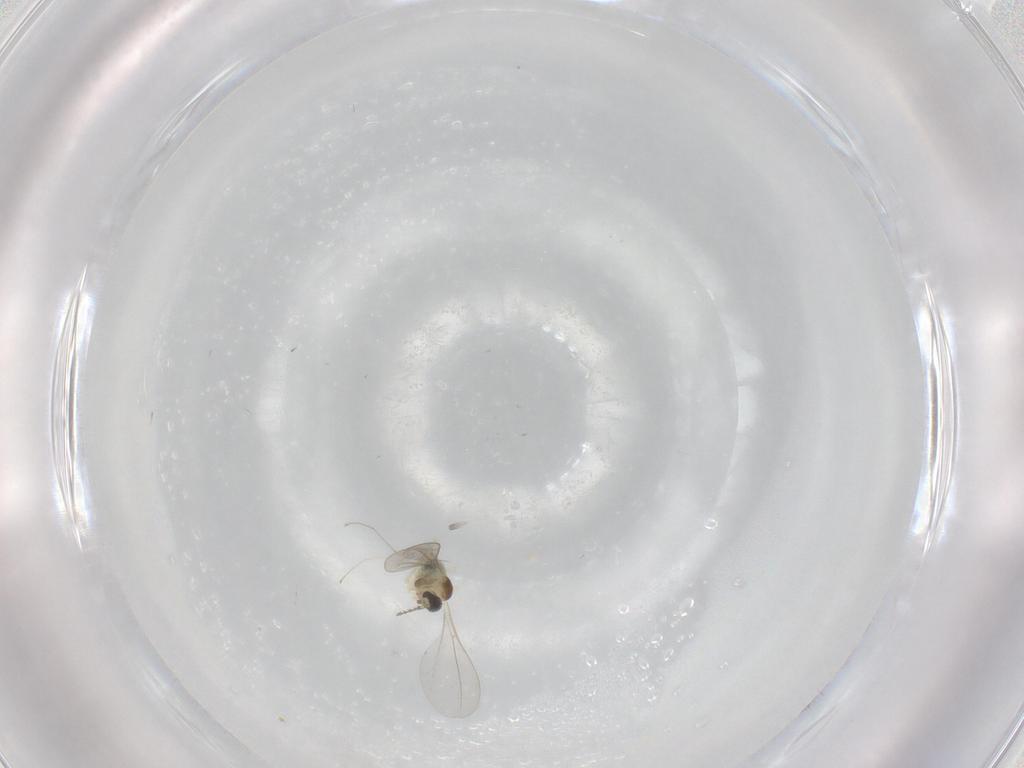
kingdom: Animalia
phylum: Arthropoda
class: Insecta
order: Diptera
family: Cecidomyiidae
